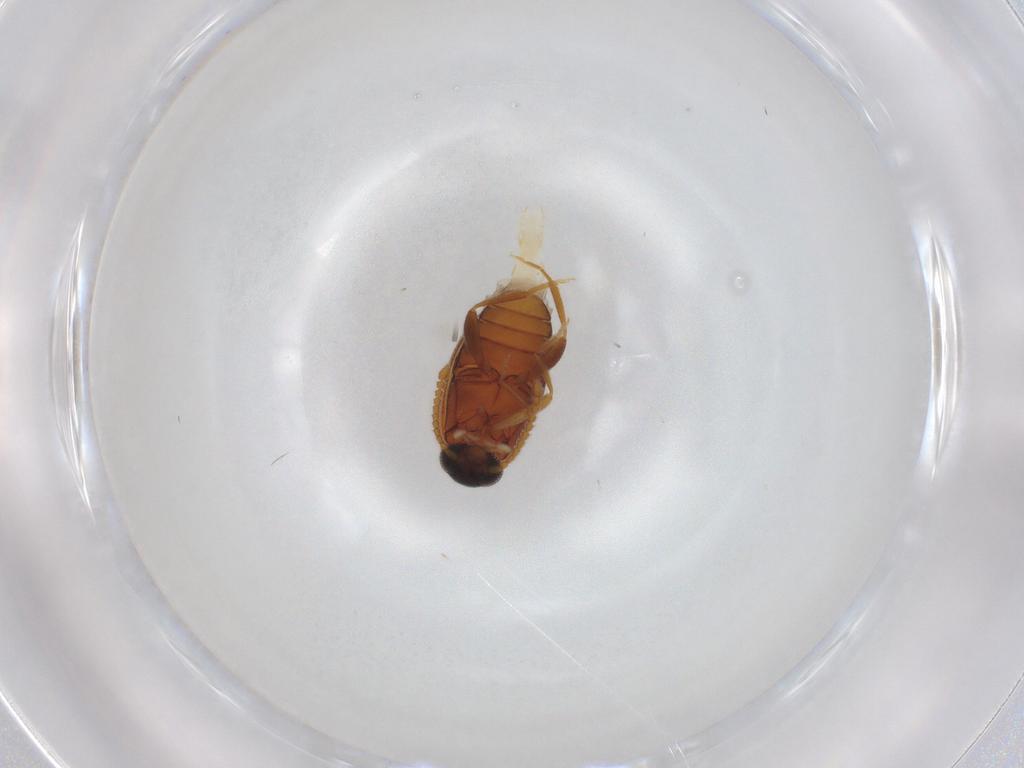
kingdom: Animalia
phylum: Arthropoda
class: Insecta
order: Coleoptera
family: Aderidae
